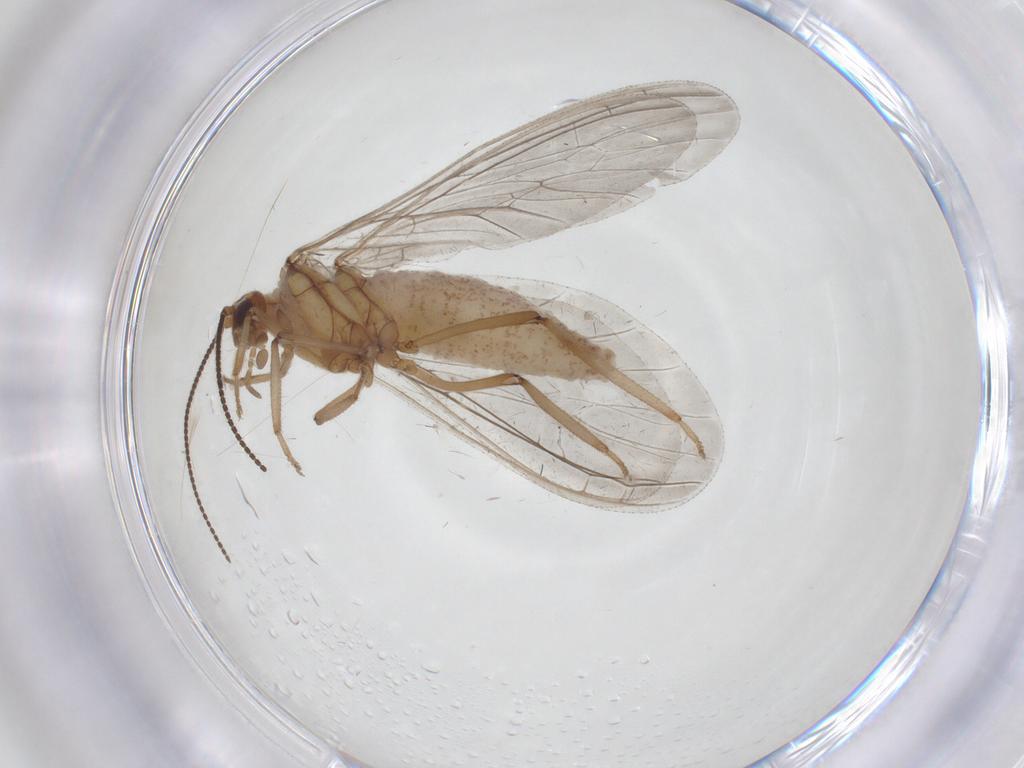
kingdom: Animalia
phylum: Arthropoda
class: Insecta
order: Neuroptera
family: Coniopterygidae
